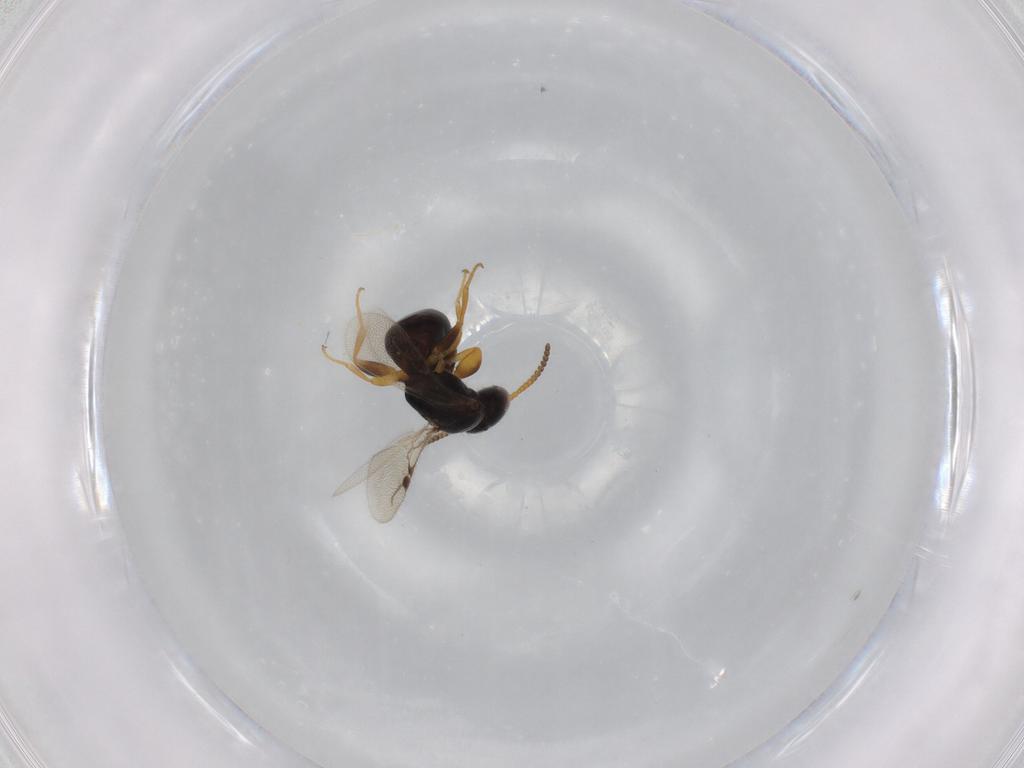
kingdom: Animalia
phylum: Arthropoda
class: Insecta
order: Hymenoptera
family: Bethylidae
